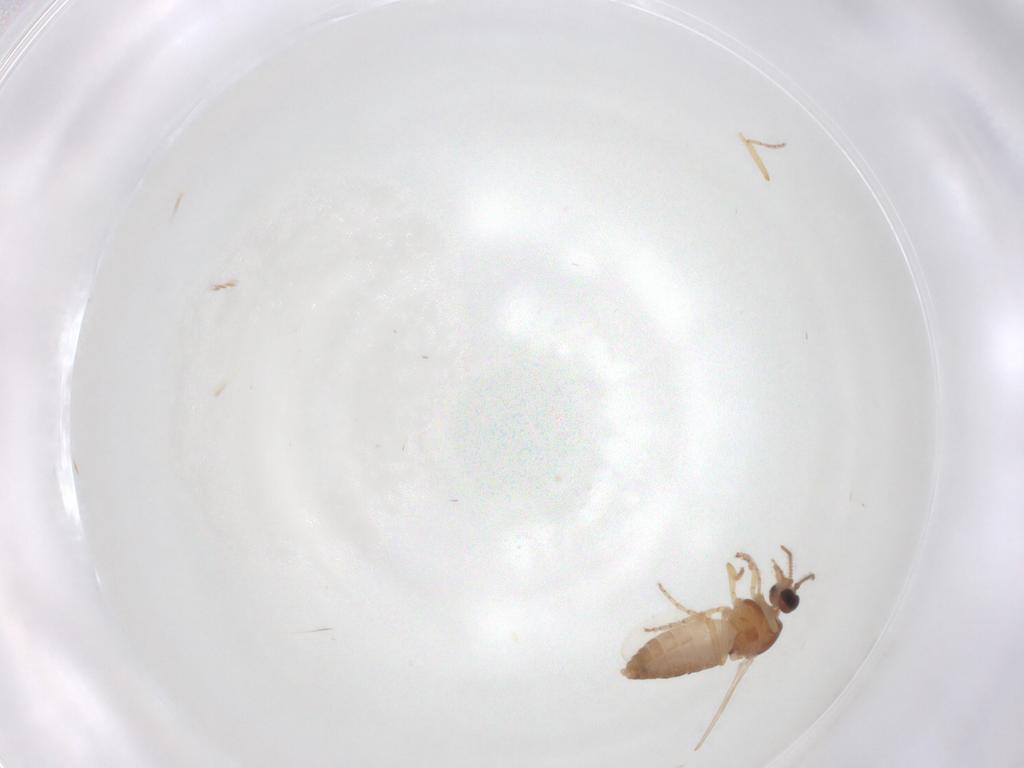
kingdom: Animalia
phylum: Arthropoda
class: Insecta
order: Diptera
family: Ceratopogonidae
